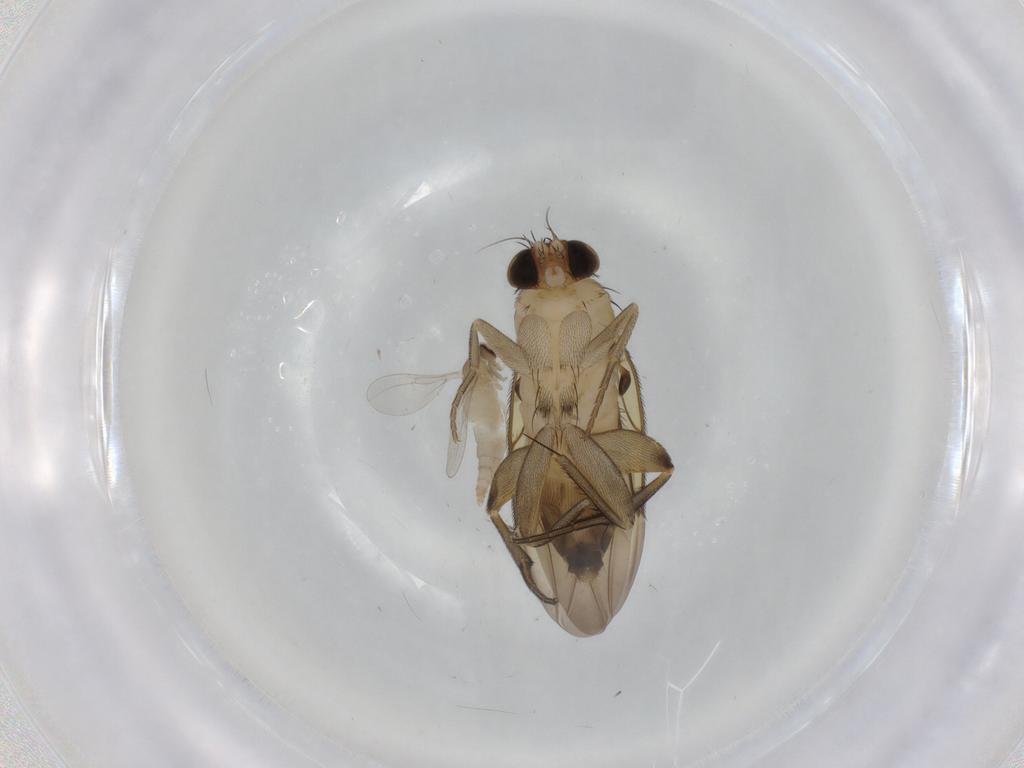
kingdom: Animalia
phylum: Arthropoda
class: Insecta
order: Diptera
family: Cecidomyiidae
